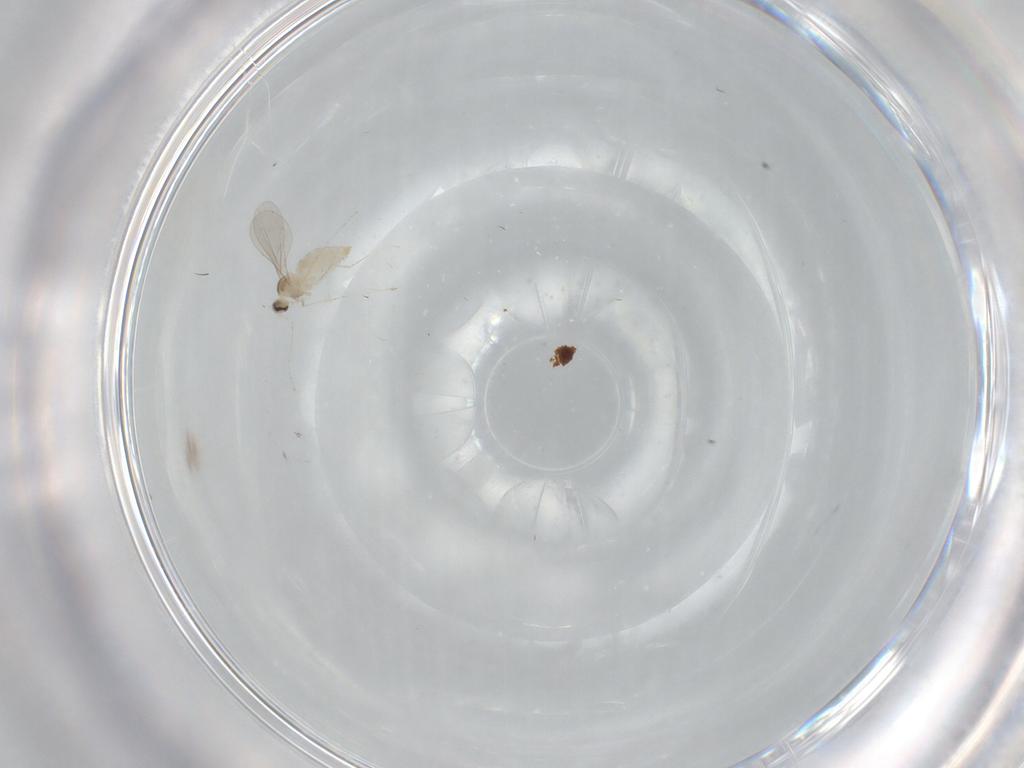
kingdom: Animalia
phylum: Arthropoda
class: Insecta
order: Diptera
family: Cecidomyiidae
